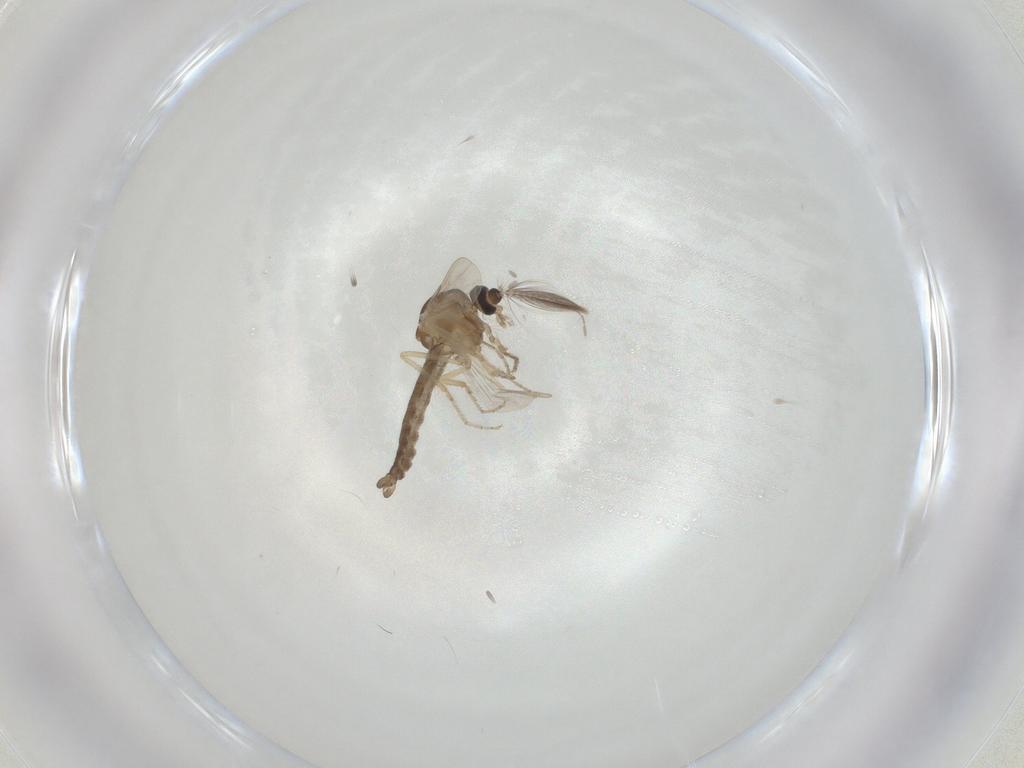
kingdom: Animalia
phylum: Arthropoda
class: Insecta
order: Diptera
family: Ceratopogonidae
